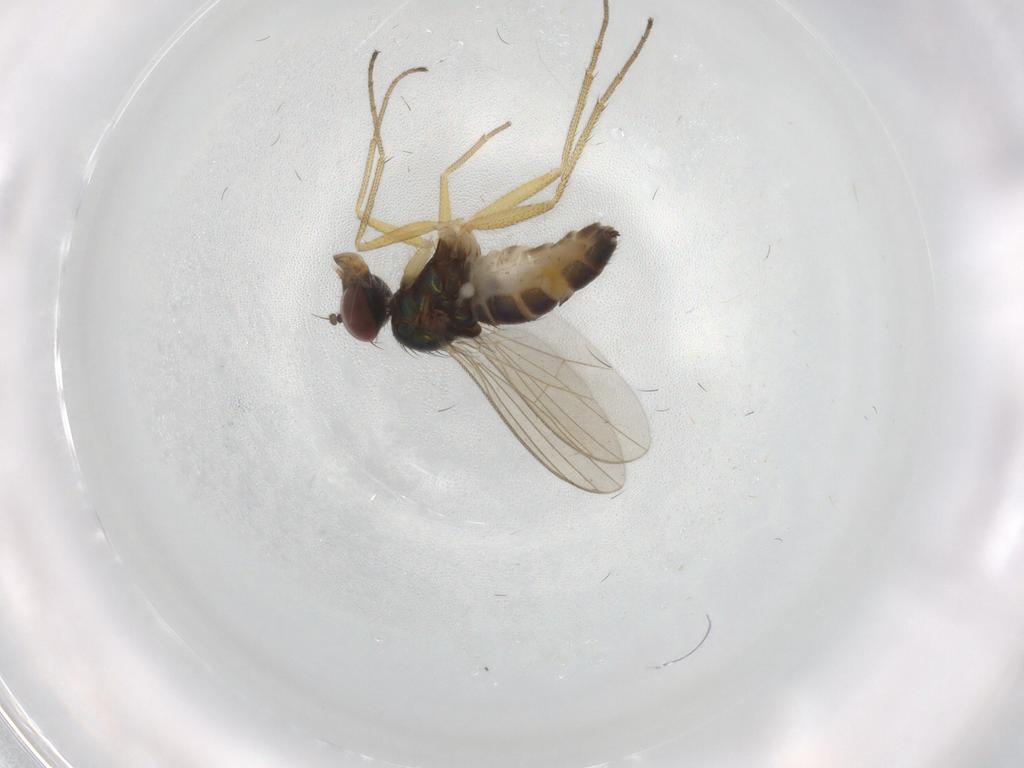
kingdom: Animalia
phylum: Arthropoda
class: Insecta
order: Diptera
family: Dolichopodidae
